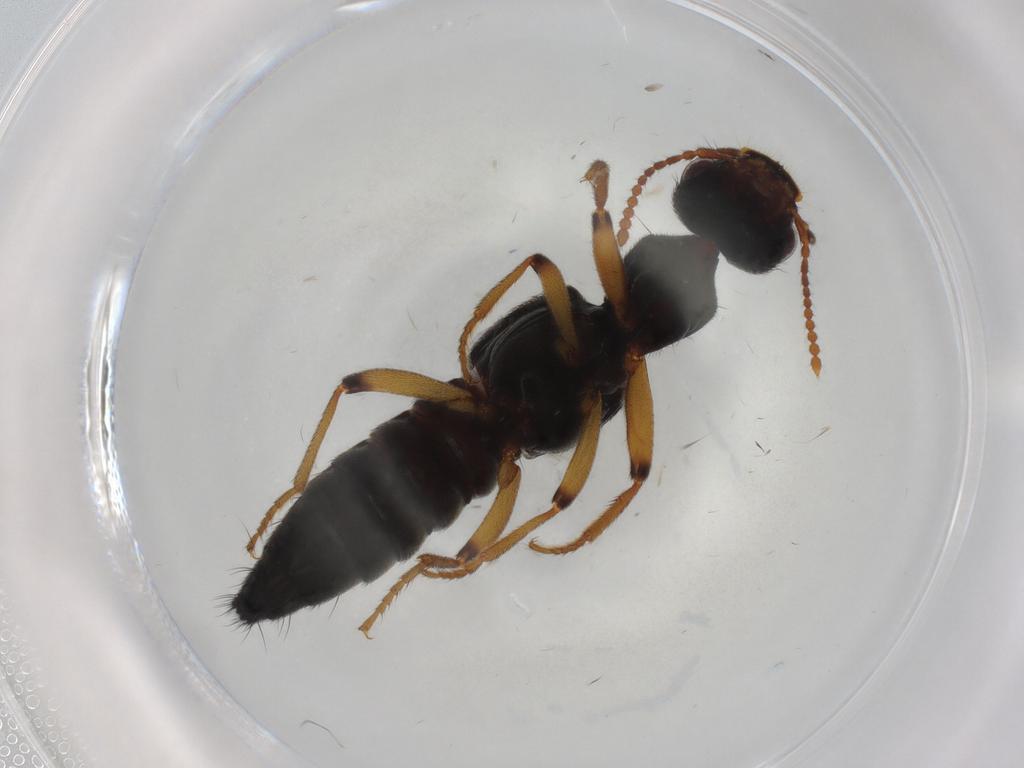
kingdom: Animalia
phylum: Arthropoda
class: Insecta
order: Coleoptera
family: Staphylinidae
